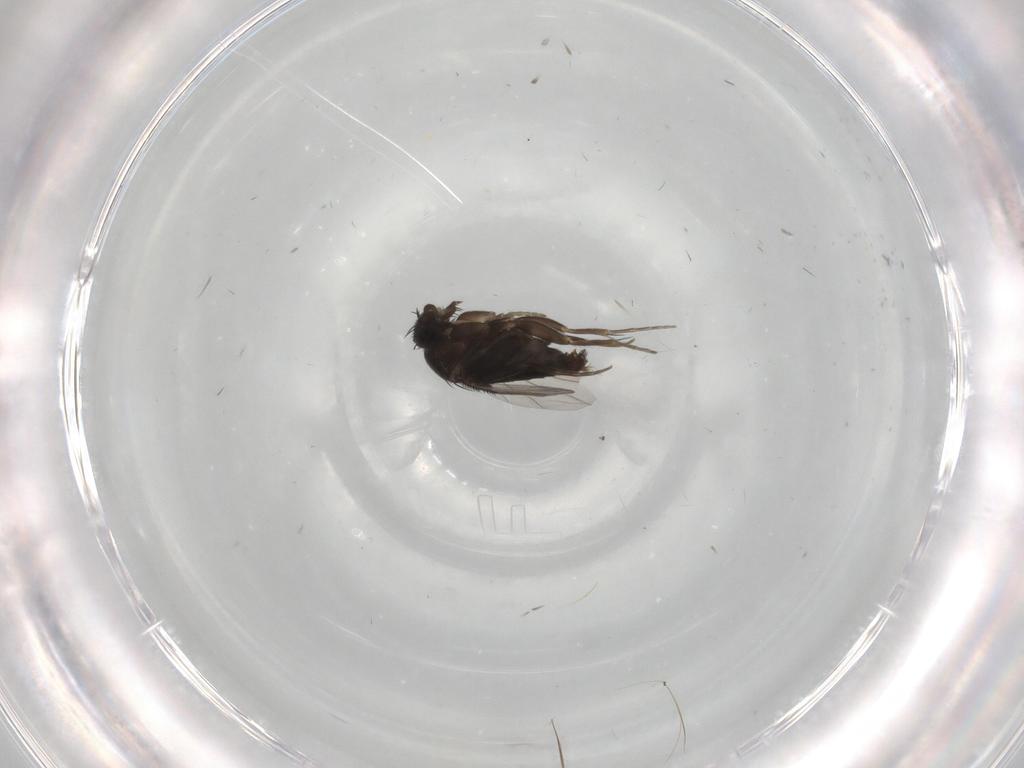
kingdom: Animalia
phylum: Arthropoda
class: Insecta
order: Diptera
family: Phoridae
